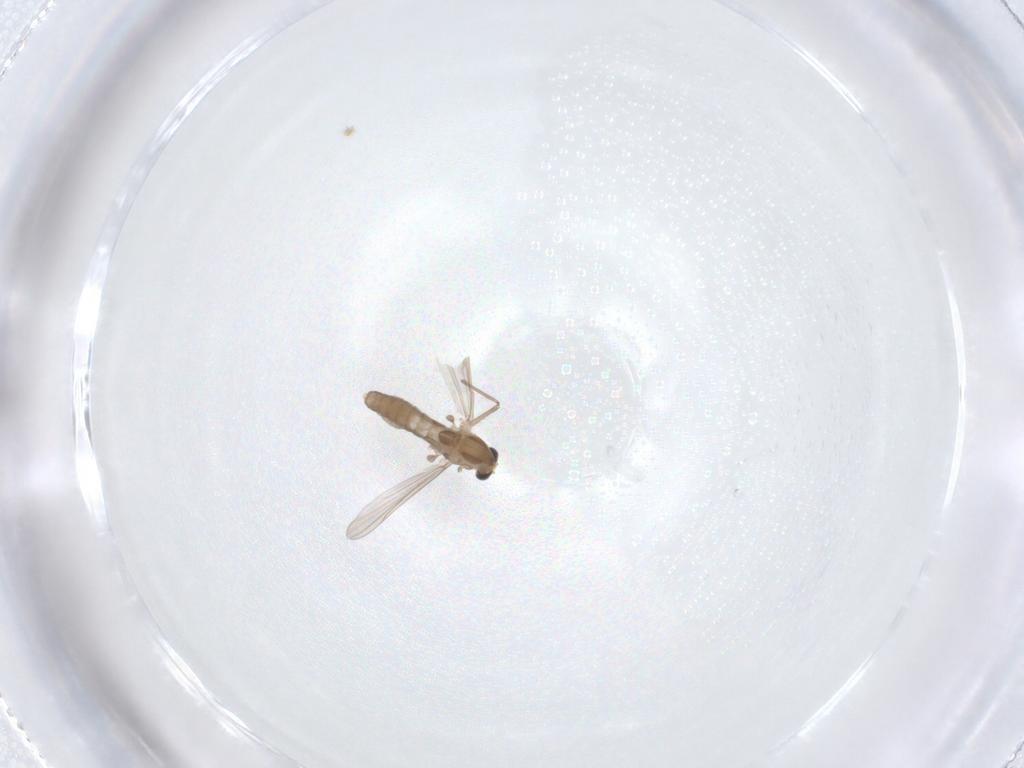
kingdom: Animalia
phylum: Arthropoda
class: Insecta
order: Diptera
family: Chironomidae
